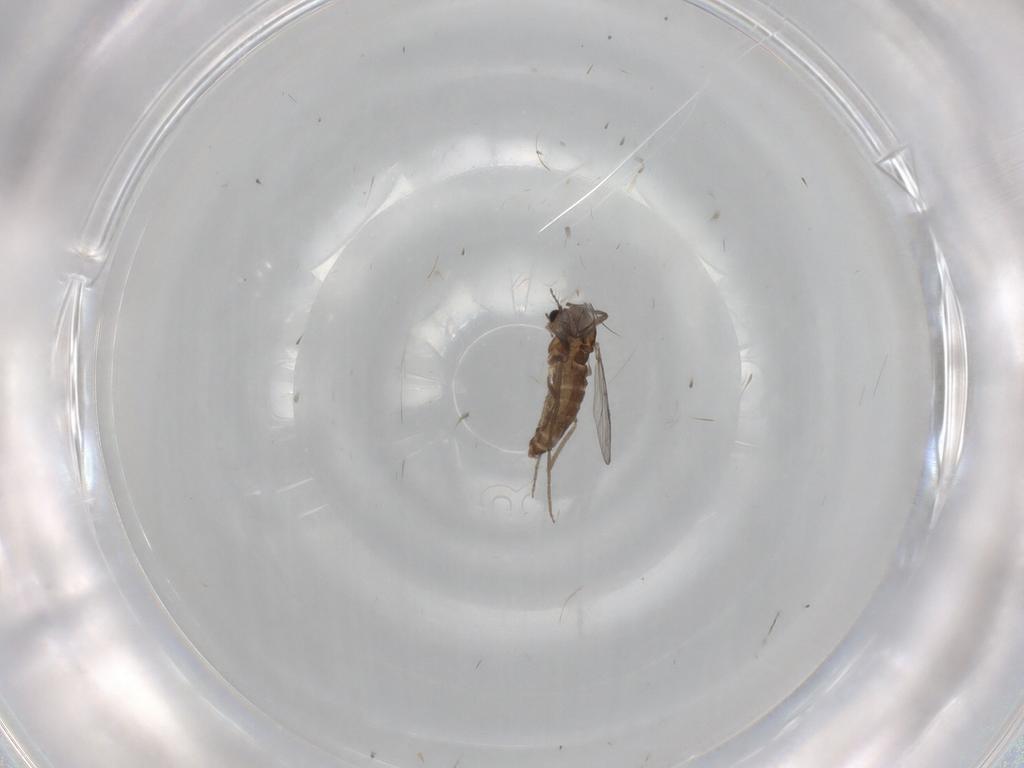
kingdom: Animalia
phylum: Arthropoda
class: Insecta
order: Diptera
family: Chironomidae
